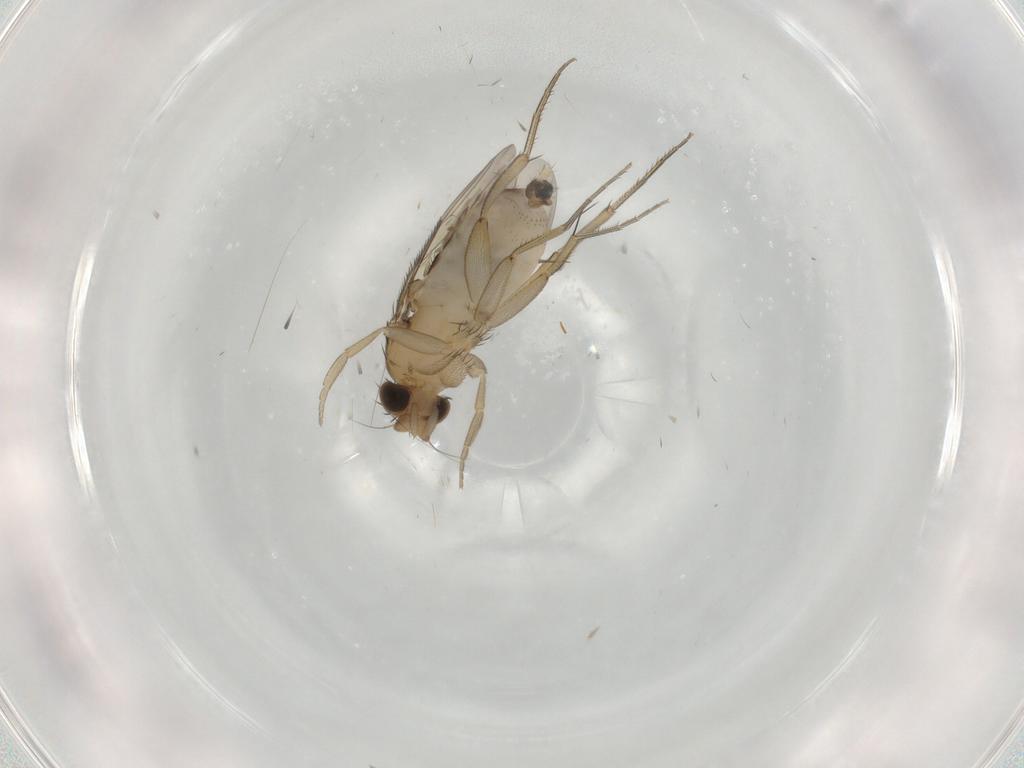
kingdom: Animalia
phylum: Arthropoda
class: Insecta
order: Diptera
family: Phoridae
